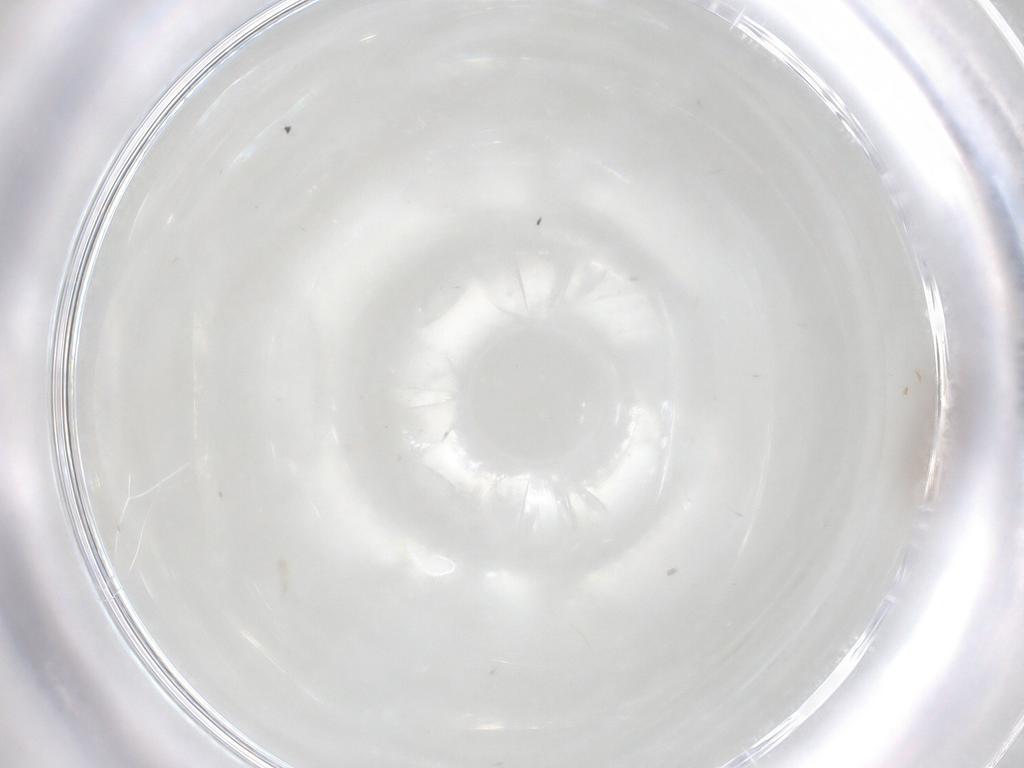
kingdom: Animalia
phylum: Arthropoda
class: Collembola
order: Entomobryomorpha
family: Entomobryidae
